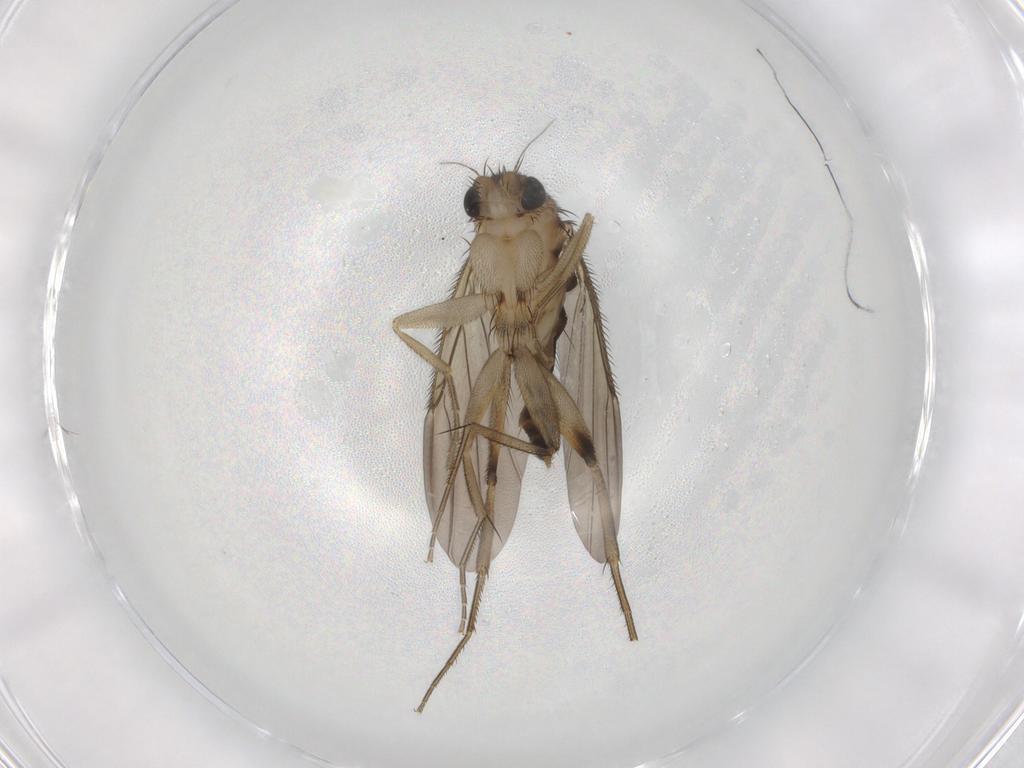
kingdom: Animalia
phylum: Arthropoda
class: Insecta
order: Diptera
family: Phoridae
